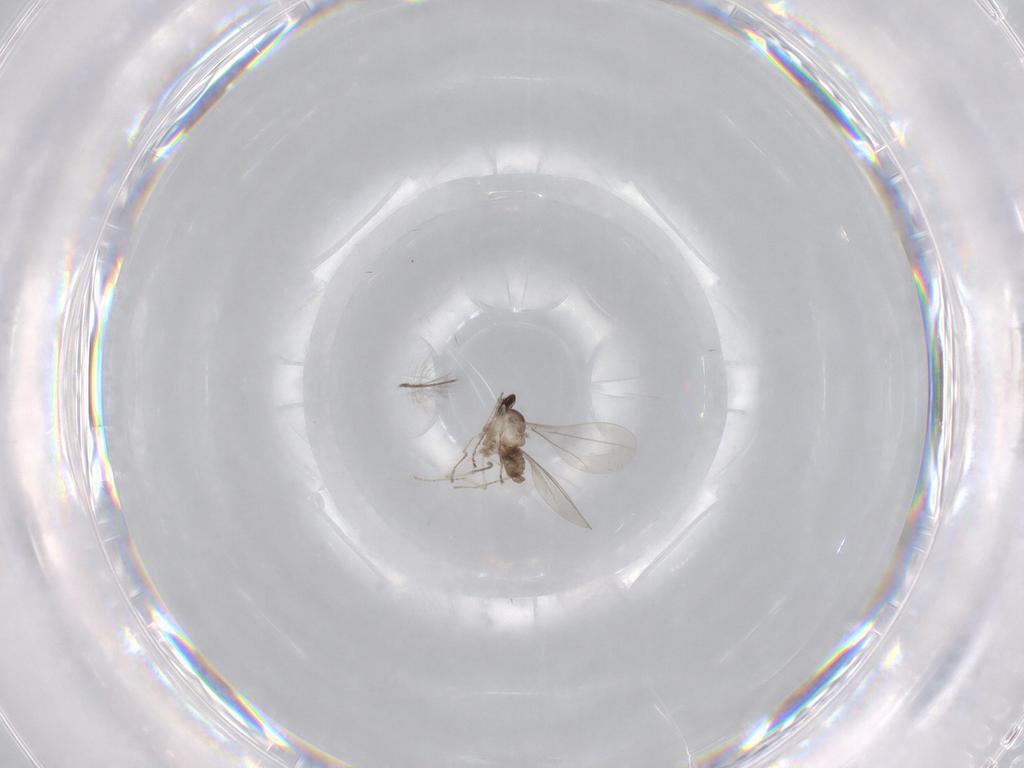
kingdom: Animalia
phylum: Arthropoda
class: Insecta
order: Diptera
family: Cecidomyiidae
